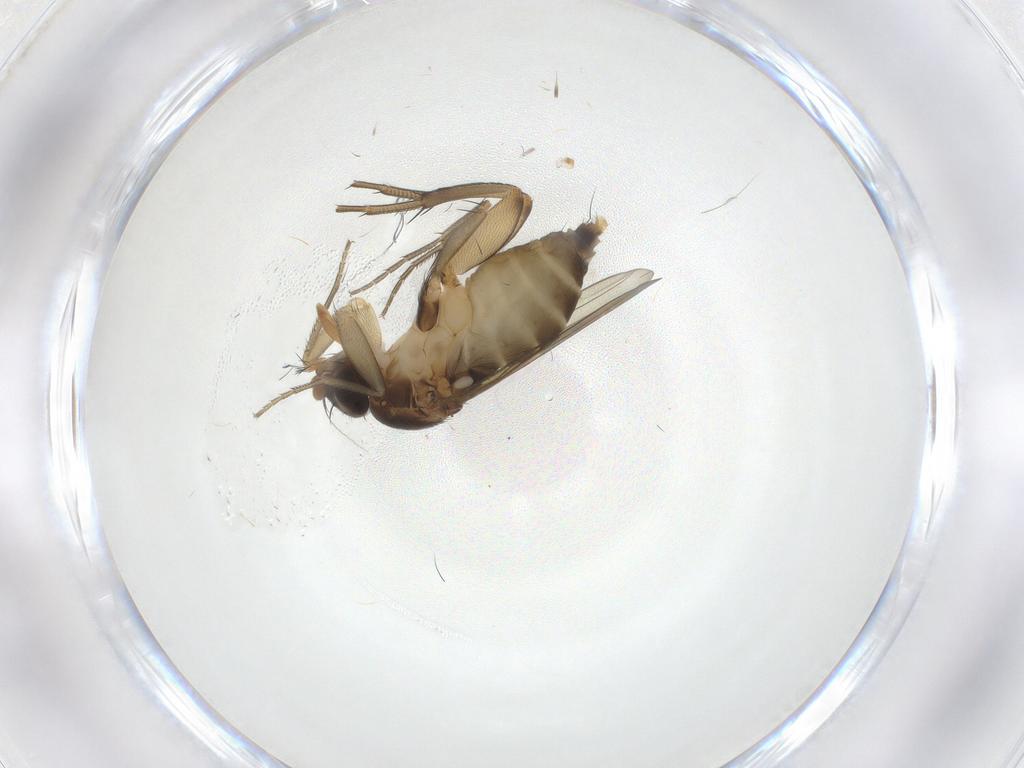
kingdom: Animalia
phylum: Arthropoda
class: Insecta
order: Diptera
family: Phoridae
